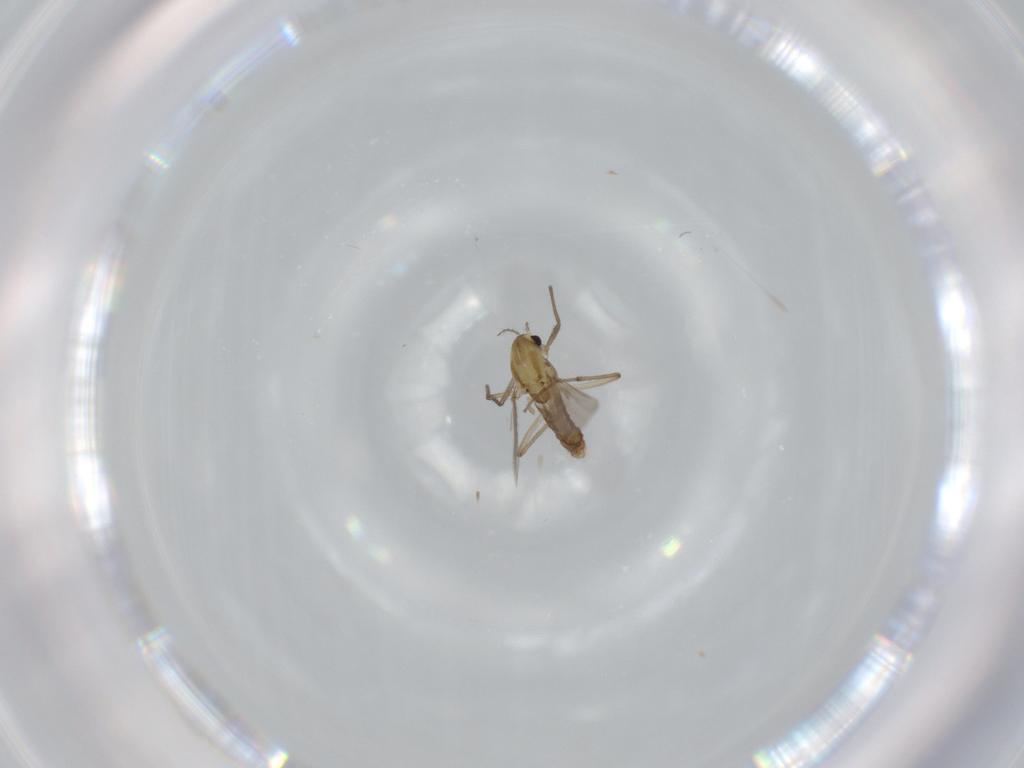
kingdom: Animalia
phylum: Arthropoda
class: Insecta
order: Diptera
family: Chironomidae
